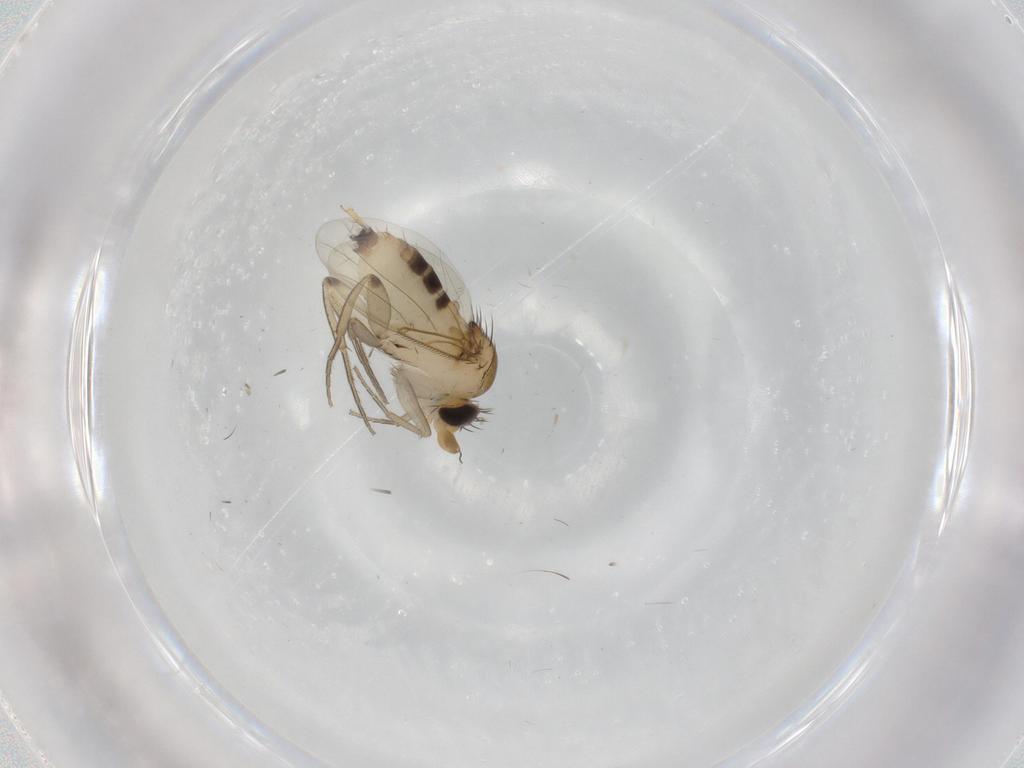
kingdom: Animalia
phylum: Arthropoda
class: Insecta
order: Diptera
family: Phoridae
